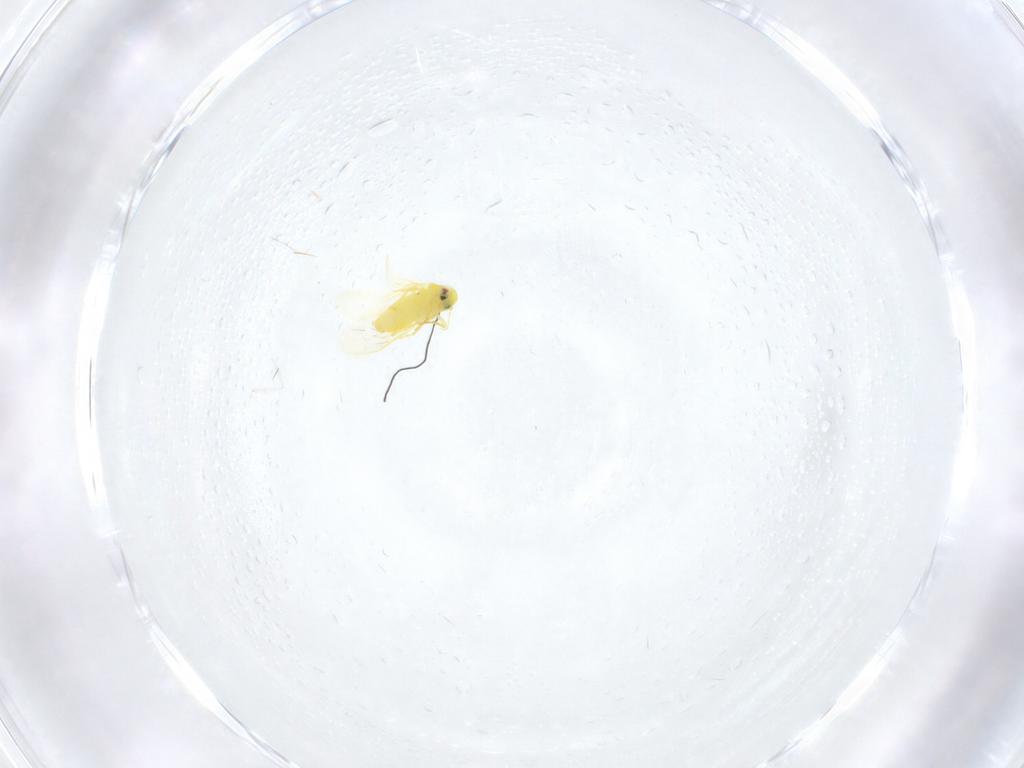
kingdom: Animalia
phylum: Arthropoda
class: Insecta
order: Hemiptera
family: Aleyrodidae
